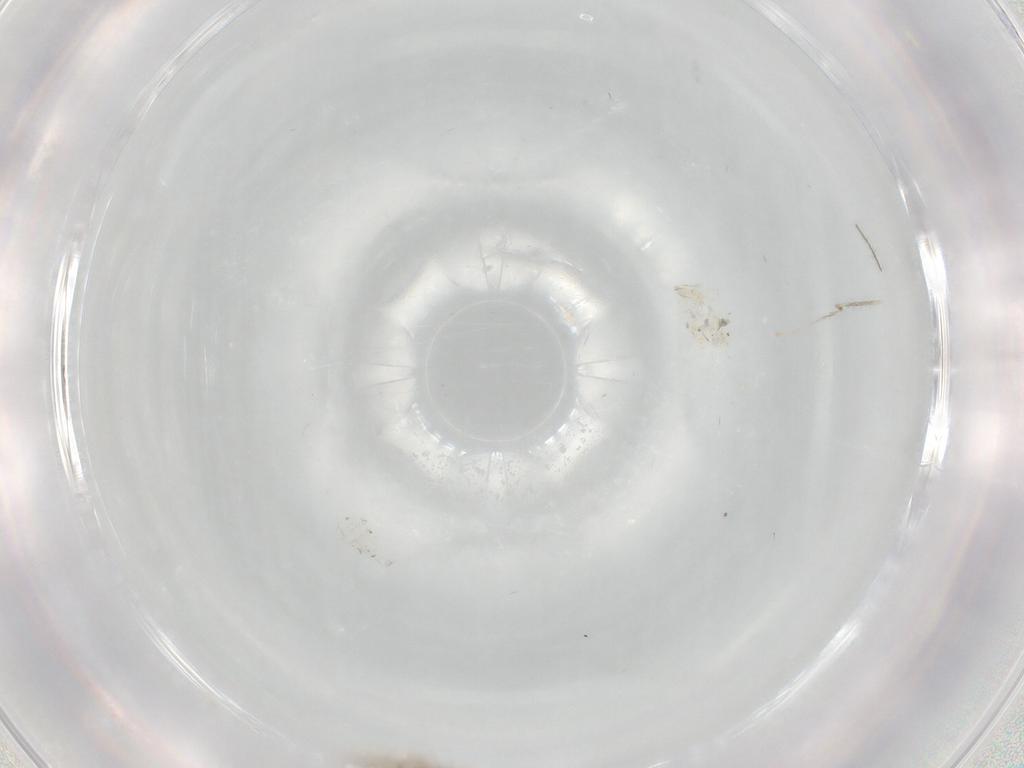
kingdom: Animalia
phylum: Arthropoda
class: Insecta
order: Diptera
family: Cecidomyiidae
